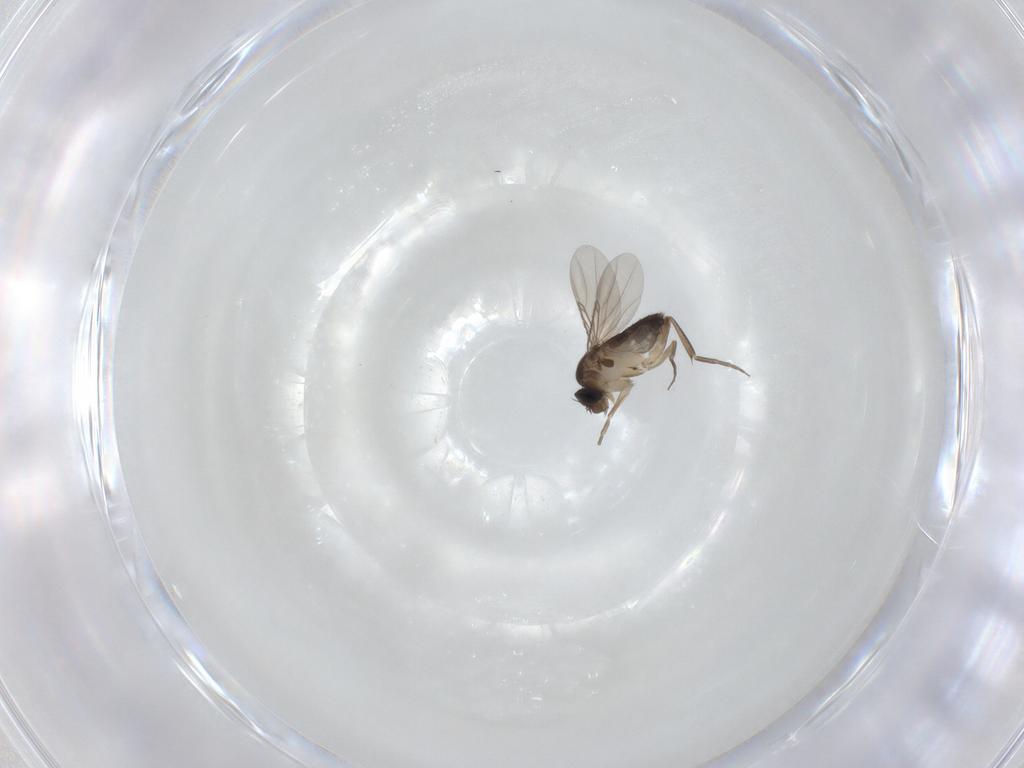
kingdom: Animalia
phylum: Arthropoda
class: Insecta
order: Diptera
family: Phoridae
